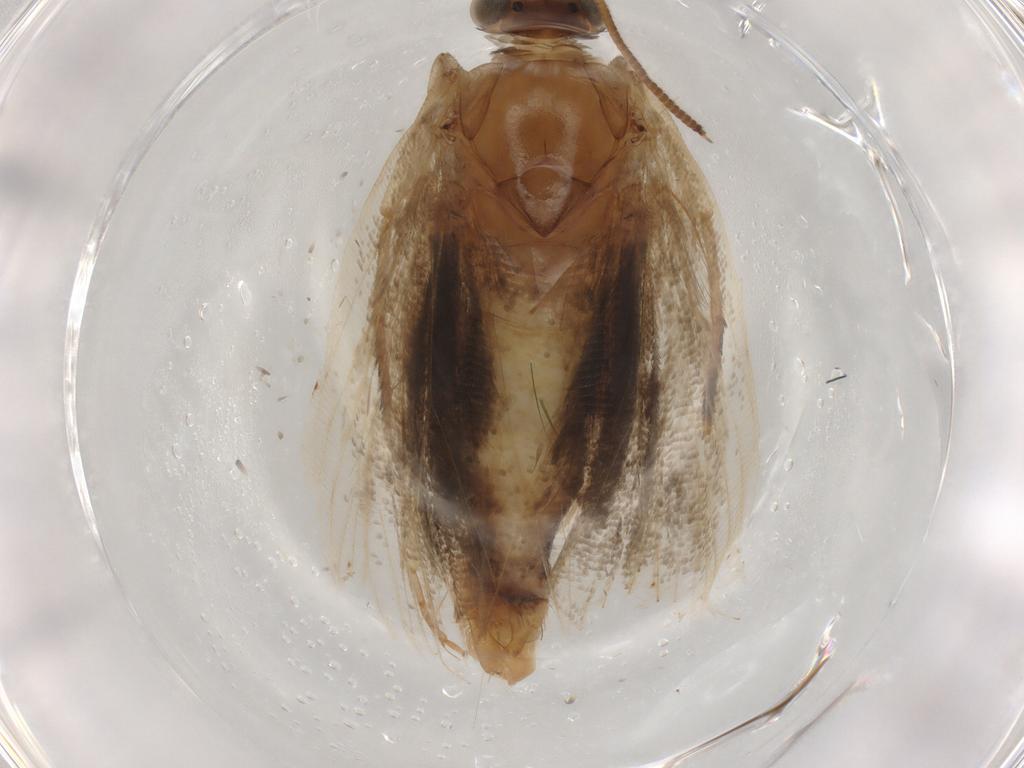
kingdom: Animalia
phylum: Arthropoda
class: Insecta
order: Lepidoptera
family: Tortricidae
